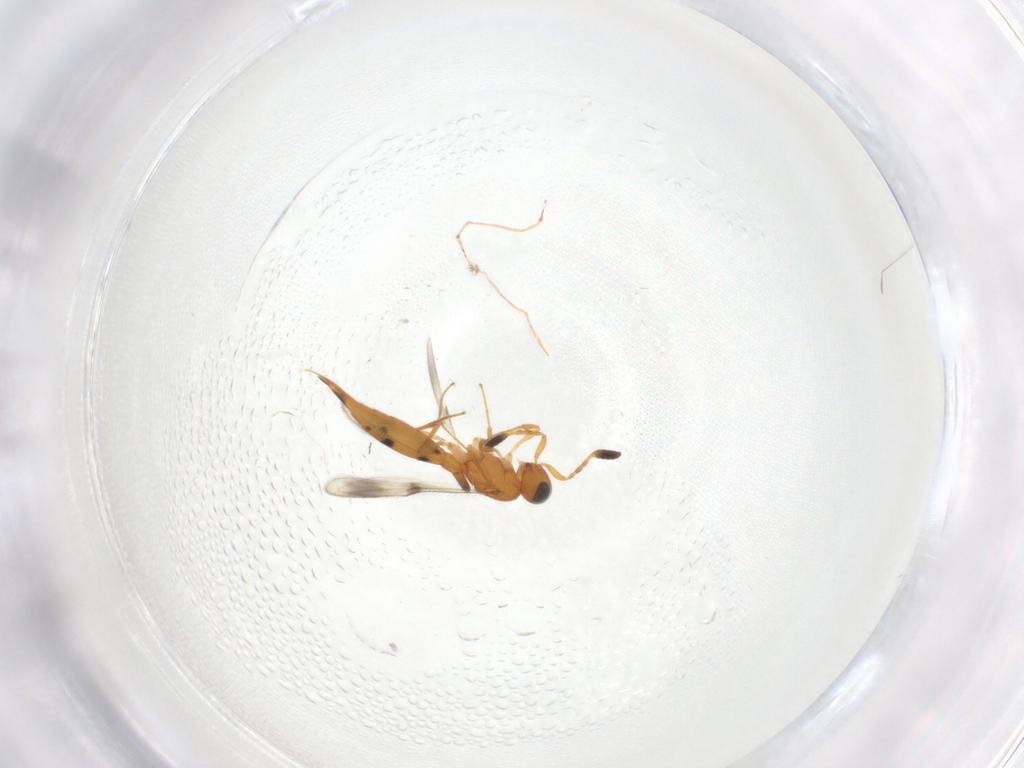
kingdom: Animalia
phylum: Arthropoda
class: Insecta
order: Hymenoptera
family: Scelionidae
